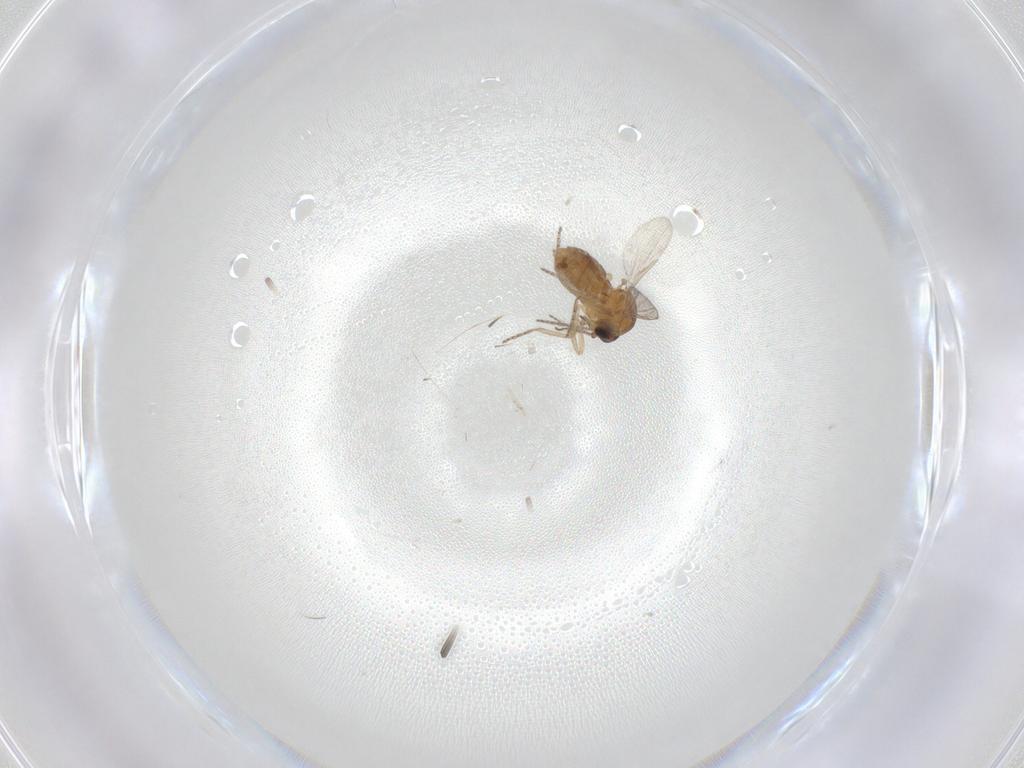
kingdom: Animalia
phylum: Arthropoda
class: Insecta
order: Diptera
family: Ceratopogonidae
